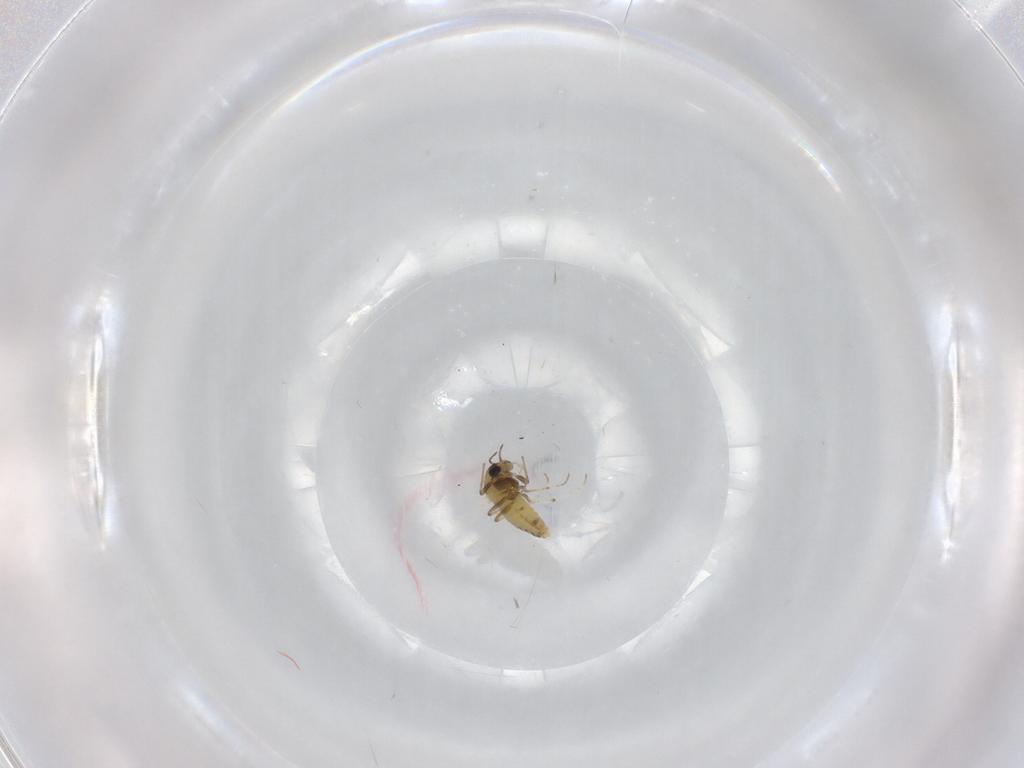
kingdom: Animalia
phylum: Arthropoda
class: Insecta
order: Diptera
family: Chironomidae
